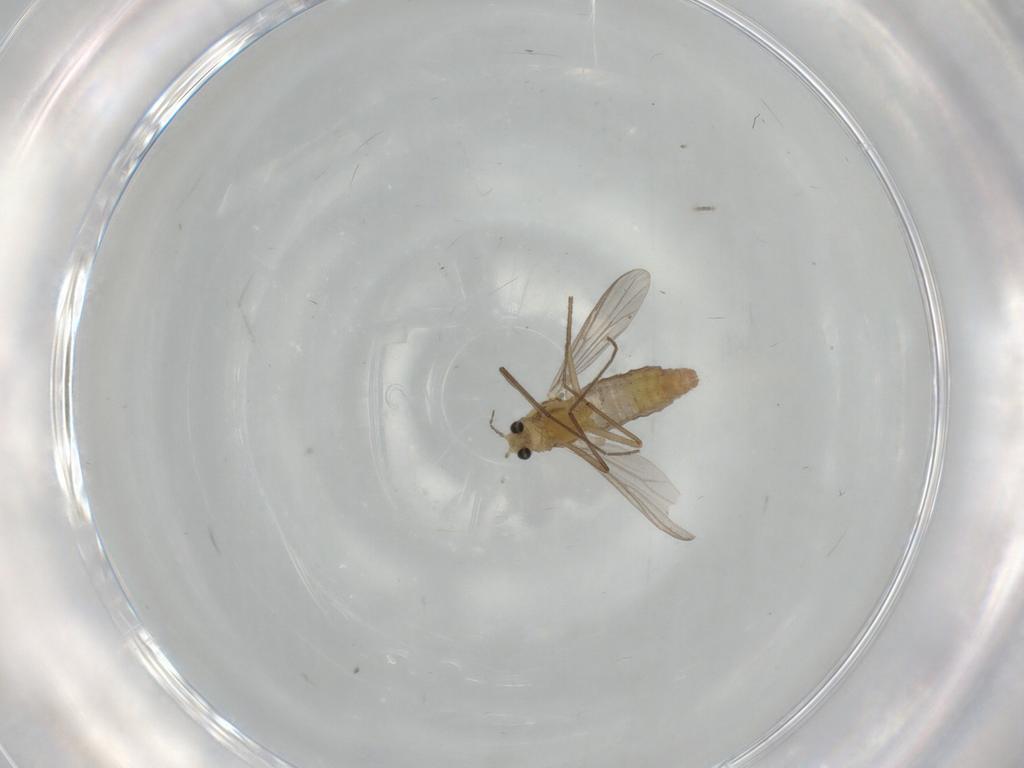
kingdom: Animalia
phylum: Arthropoda
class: Insecta
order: Diptera
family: Chironomidae
